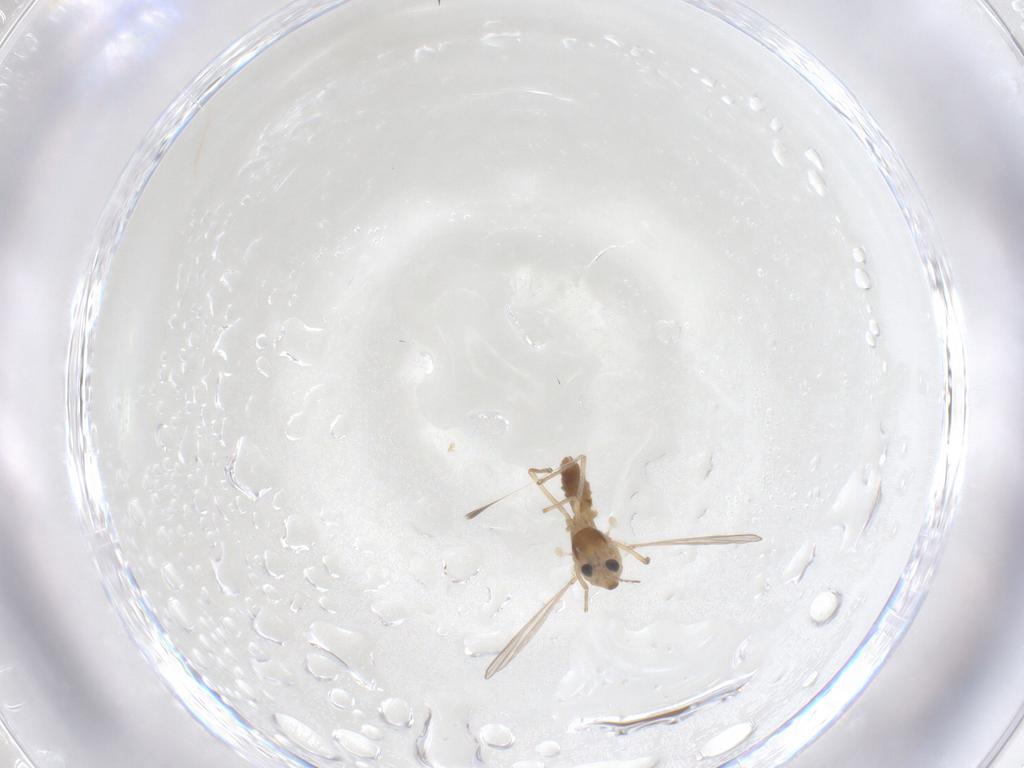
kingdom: Animalia
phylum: Arthropoda
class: Insecta
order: Diptera
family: Chironomidae
